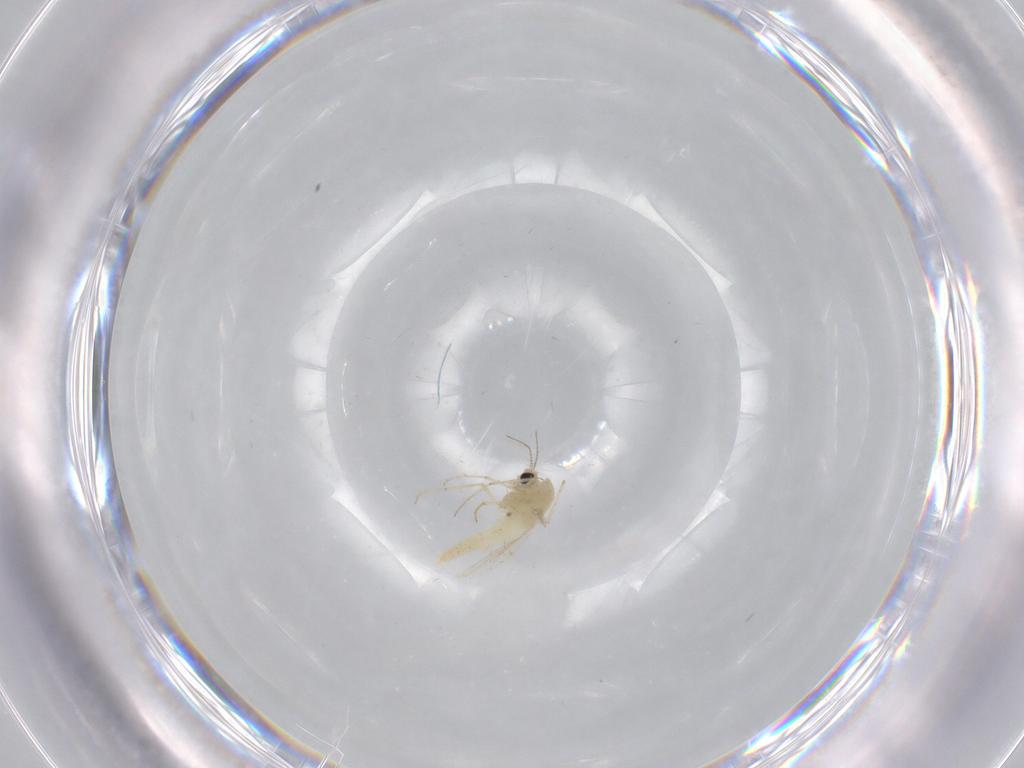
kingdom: Animalia
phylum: Arthropoda
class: Insecta
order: Diptera
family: Chironomidae
